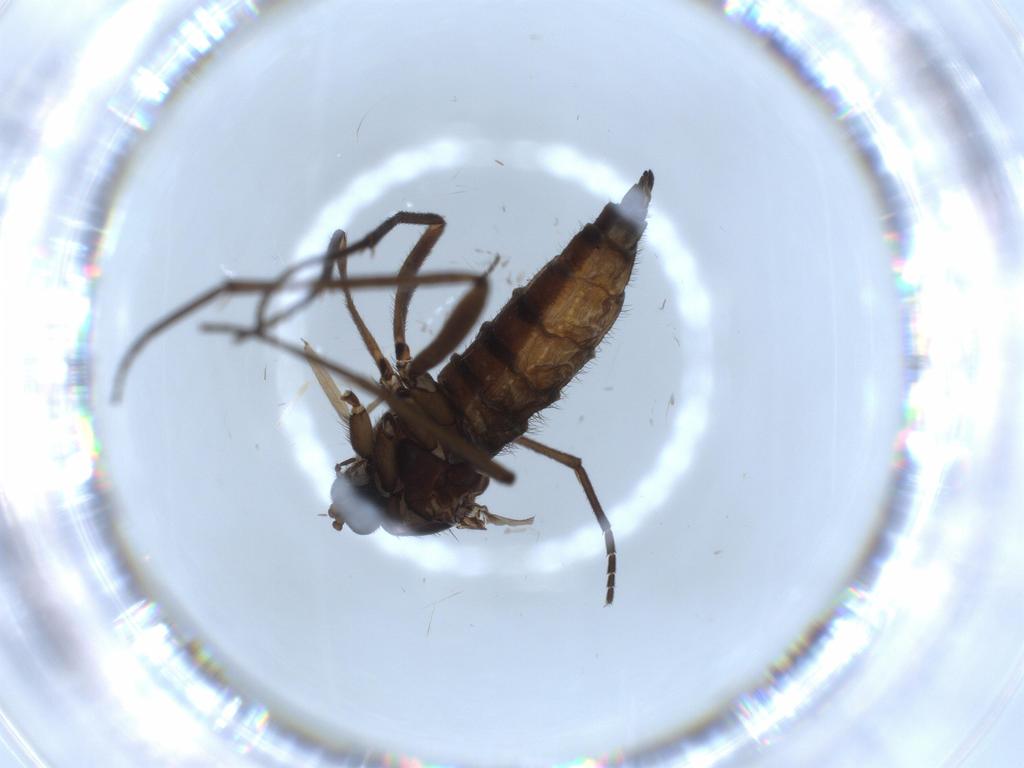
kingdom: Animalia
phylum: Arthropoda
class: Insecta
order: Diptera
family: Sciaridae
